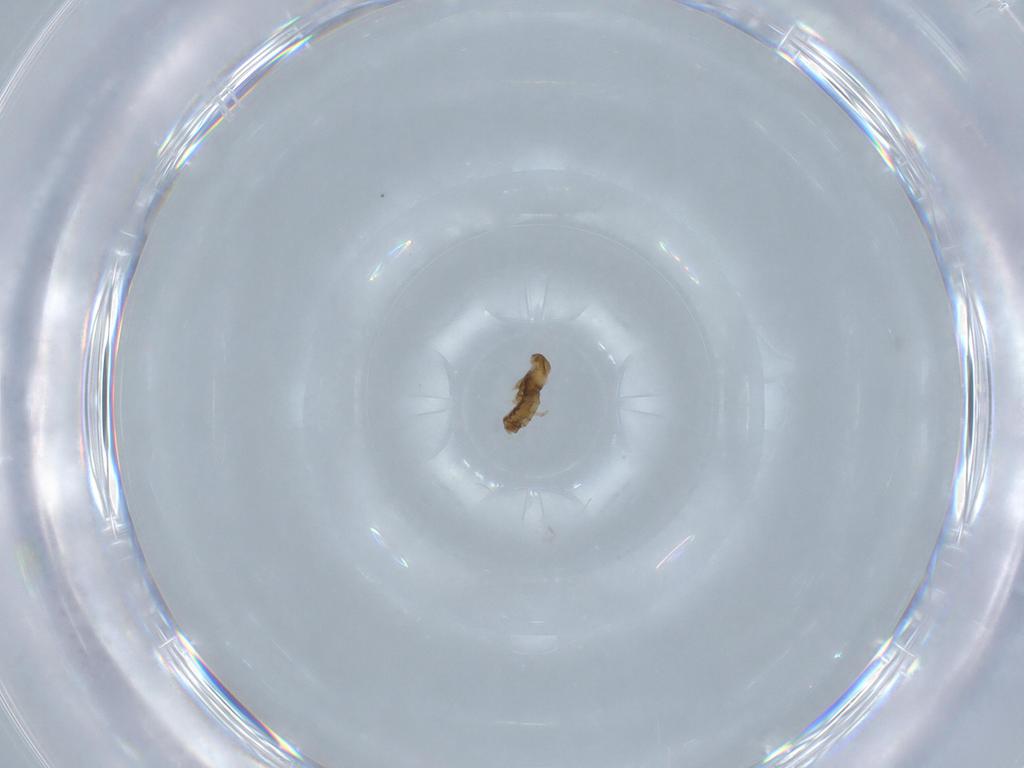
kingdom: Animalia
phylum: Arthropoda
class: Insecta
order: Diptera
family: Cecidomyiidae
